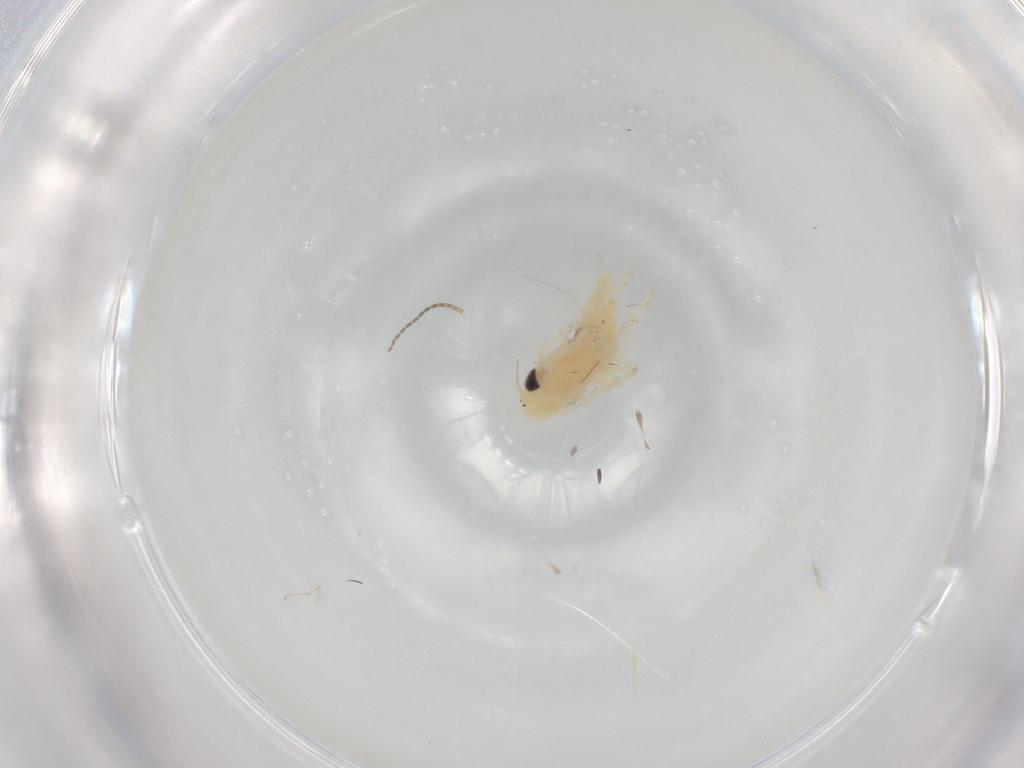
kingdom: Animalia
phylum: Arthropoda
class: Insecta
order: Hemiptera
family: Cicadellidae
